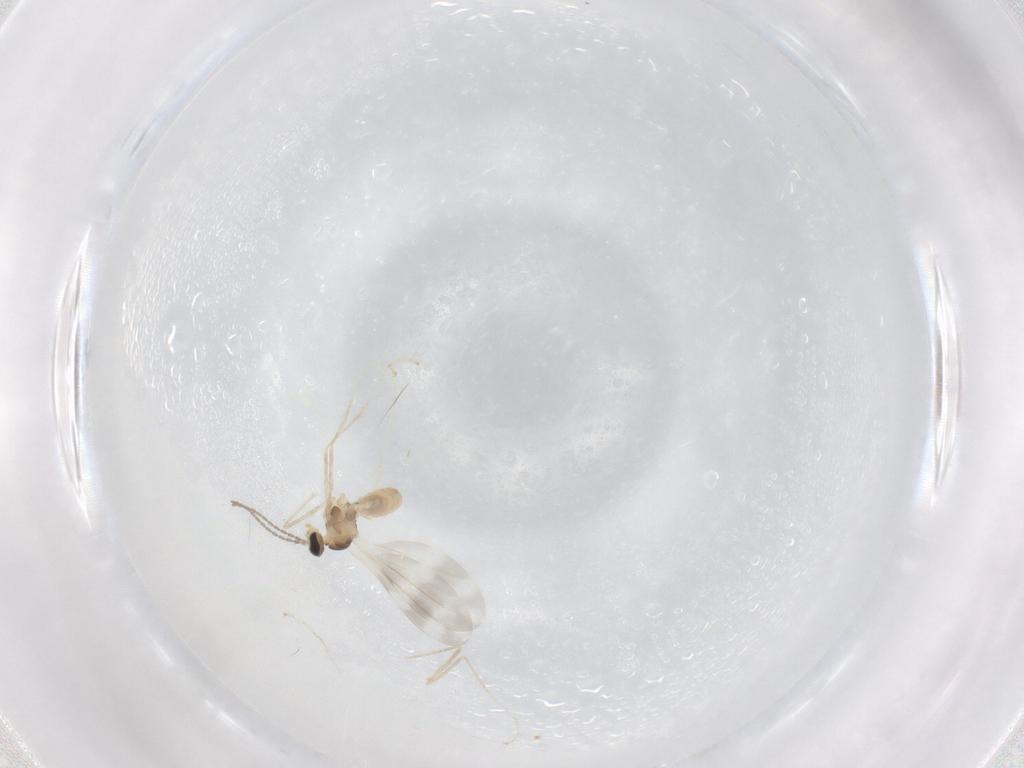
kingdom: Animalia
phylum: Arthropoda
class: Insecta
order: Diptera
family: Cecidomyiidae
